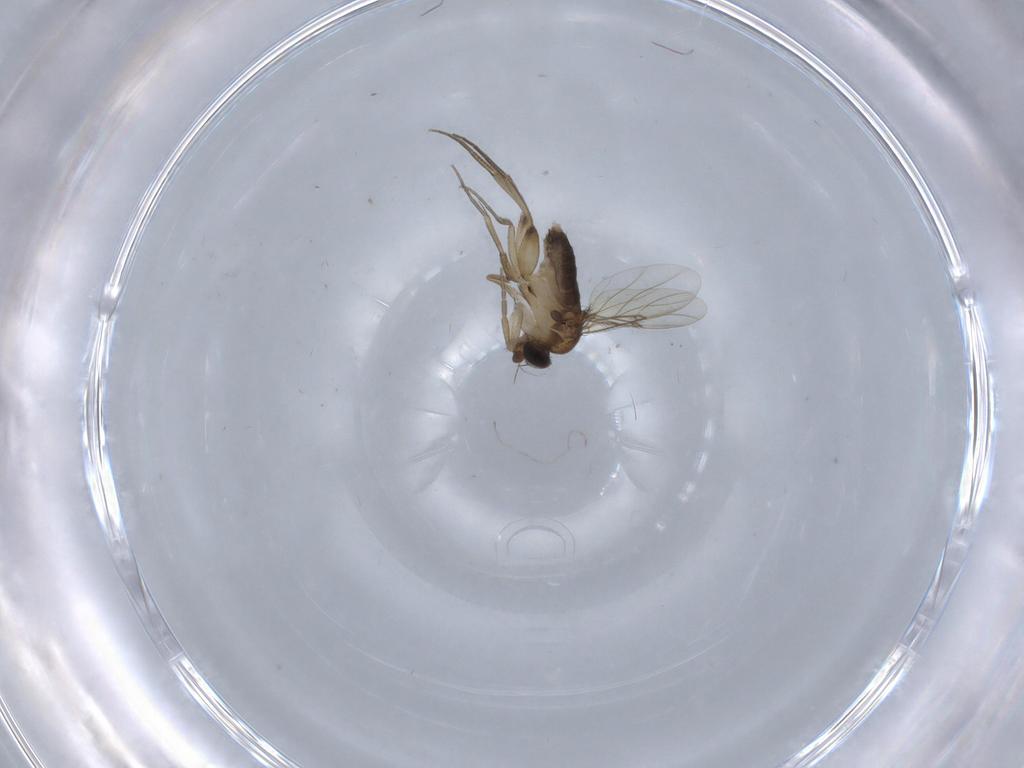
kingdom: Animalia
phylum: Arthropoda
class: Insecta
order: Diptera
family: Phoridae
